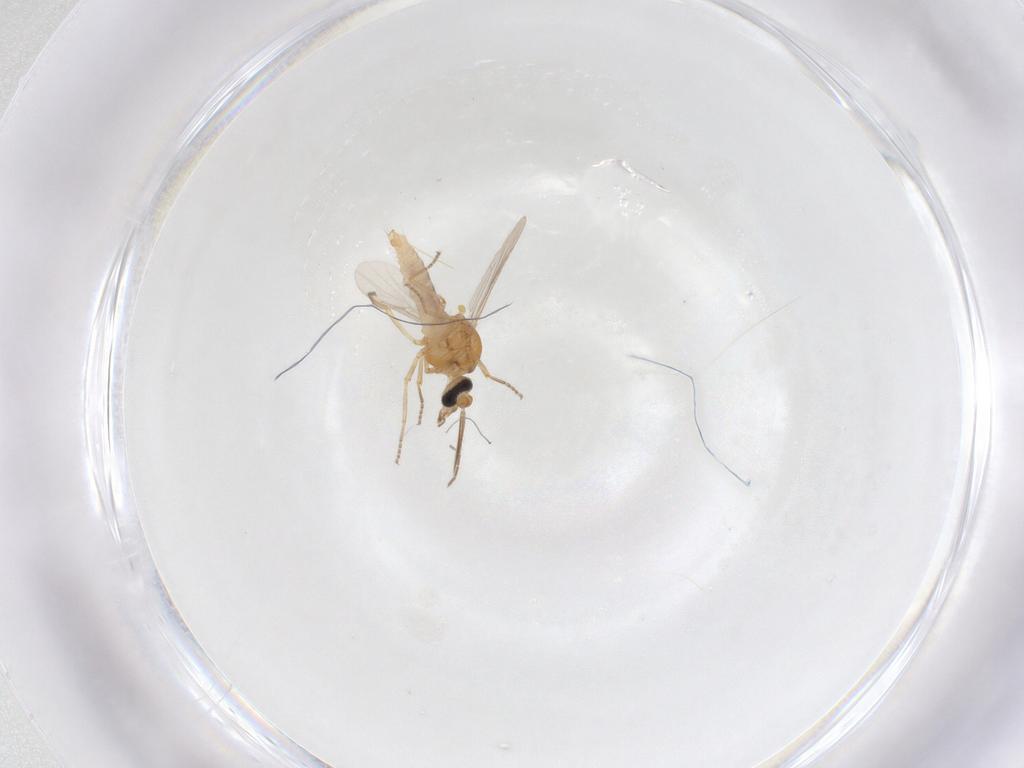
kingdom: Animalia
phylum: Arthropoda
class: Insecta
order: Diptera
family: Ceratopogonidae
